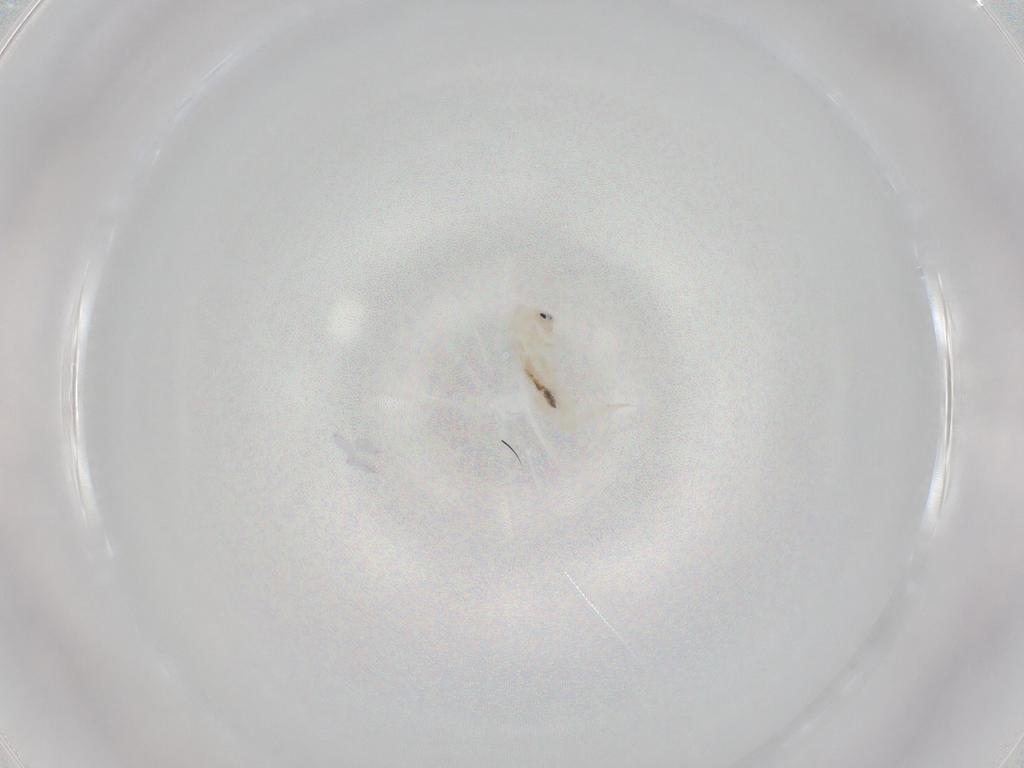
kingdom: Animalia
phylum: Arthropoda
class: Collembola
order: Entomobryomorpha
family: Entomobryidae
